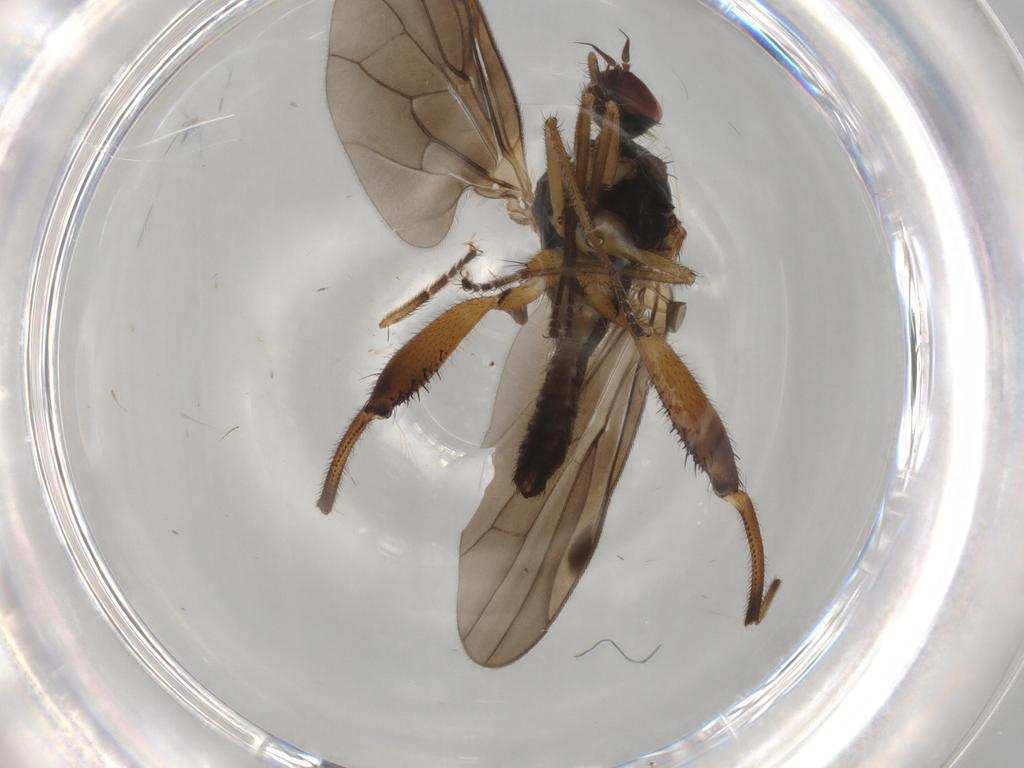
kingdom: Animalia
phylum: Arthropoda
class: Insecta
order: Diptera
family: Hybotidae
